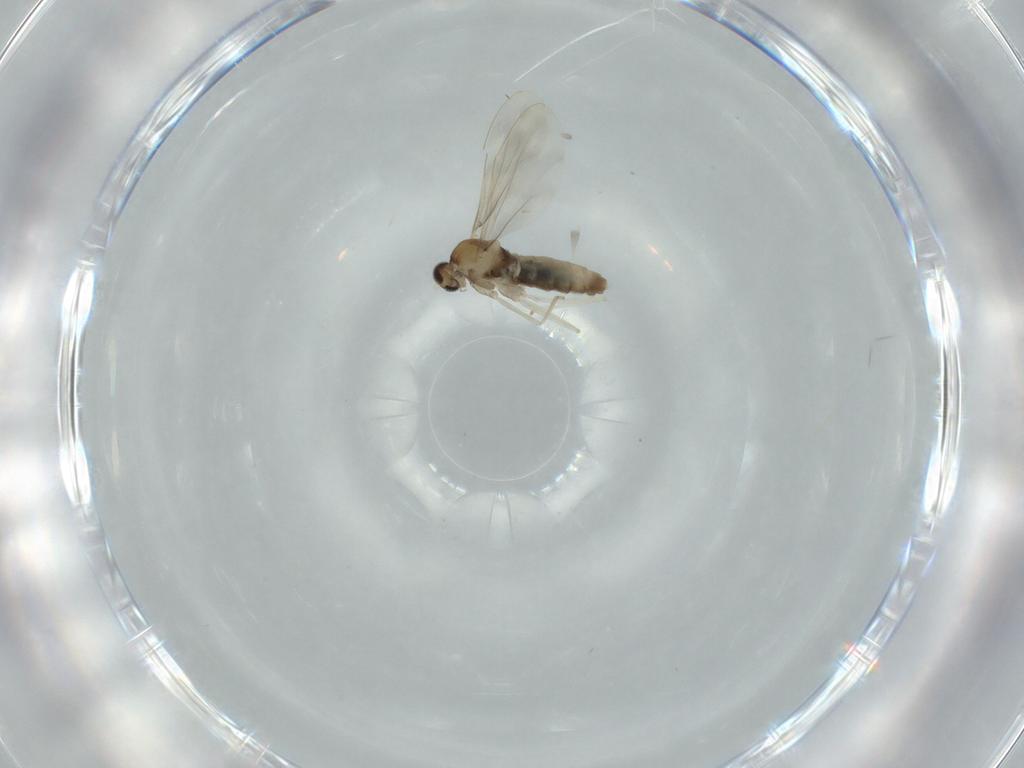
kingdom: Animalia
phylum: Arthropoda
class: Insecta
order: Diptera
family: Cecidomyiidae
